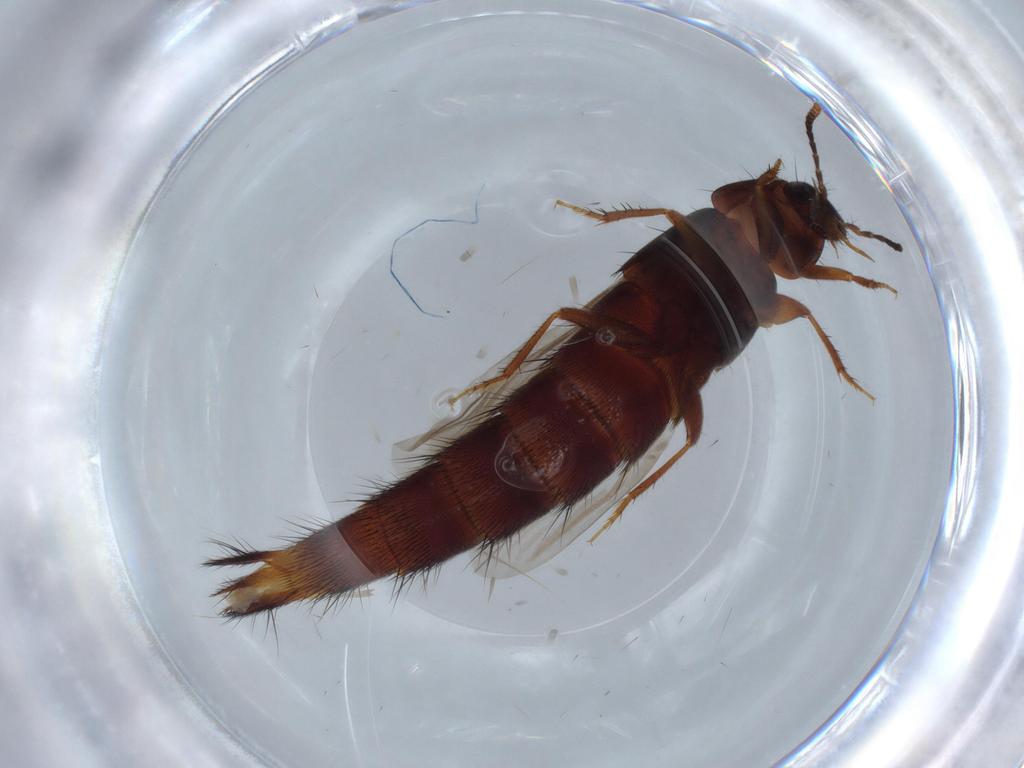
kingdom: Animalia
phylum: Arthropoda
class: Insecta
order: Coleoptera
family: Staphylinidae
